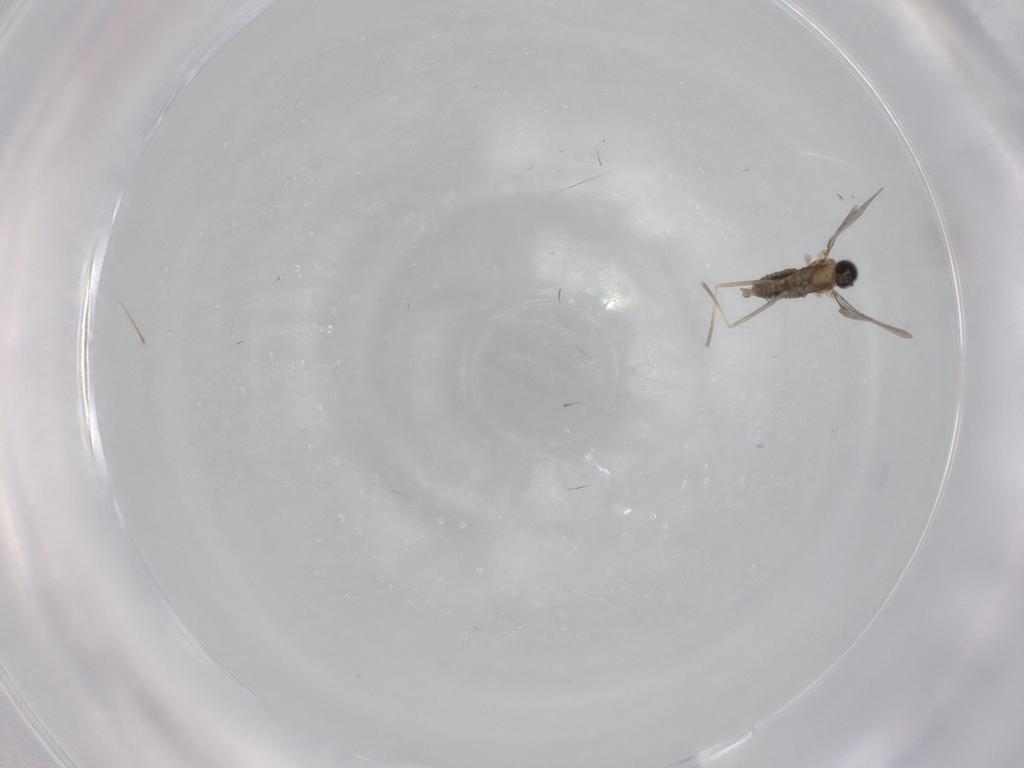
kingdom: Animalia
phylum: Arthropoda
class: Insecta
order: Diptera
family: Cecidomyiidae
